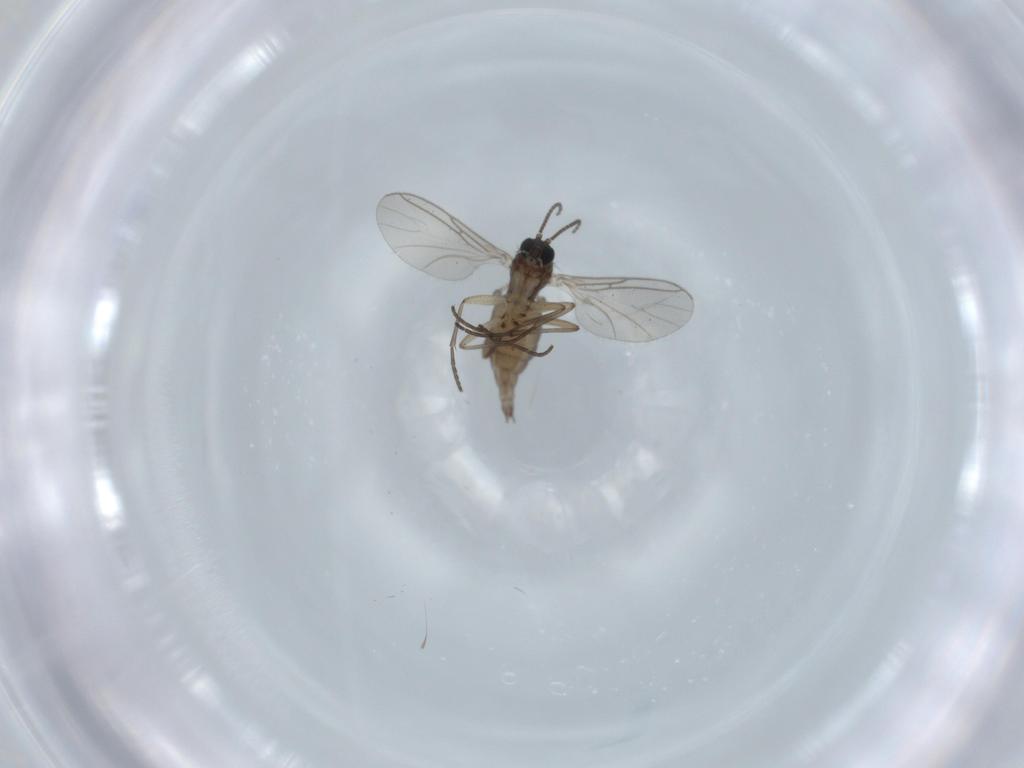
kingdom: Animalia
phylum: Arthropoda
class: Insecta
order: Diptera
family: Sciaridae
